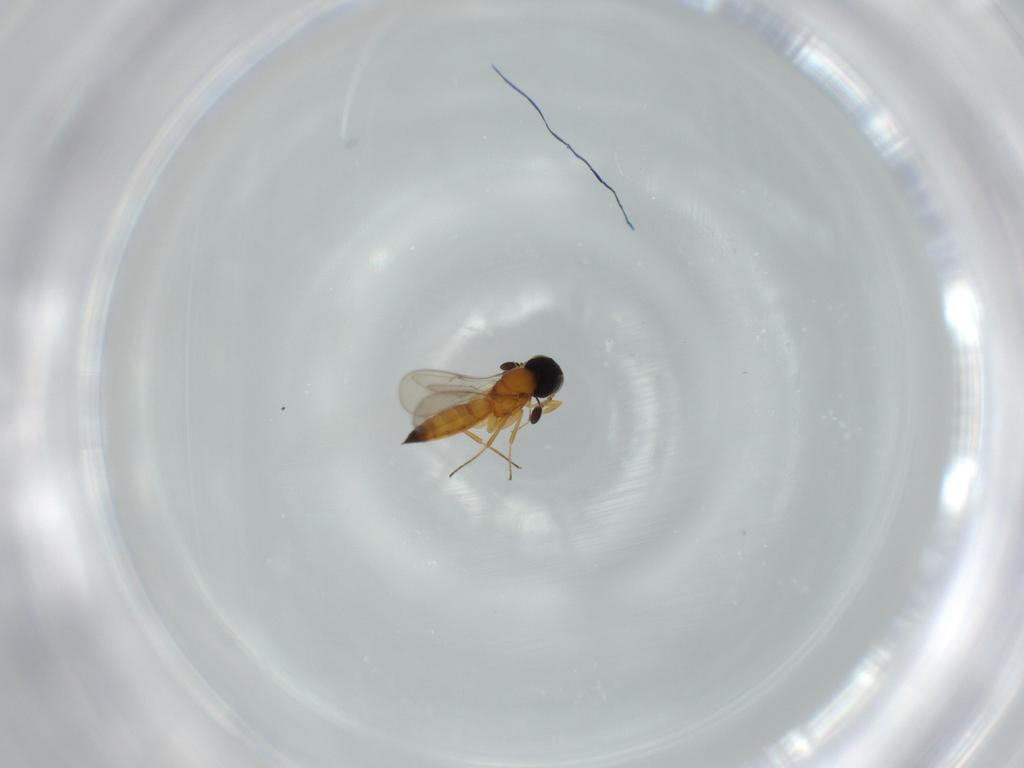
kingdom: Animalia
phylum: Arthropoda
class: Insecta
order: Hymenoptera
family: Scelionidae
